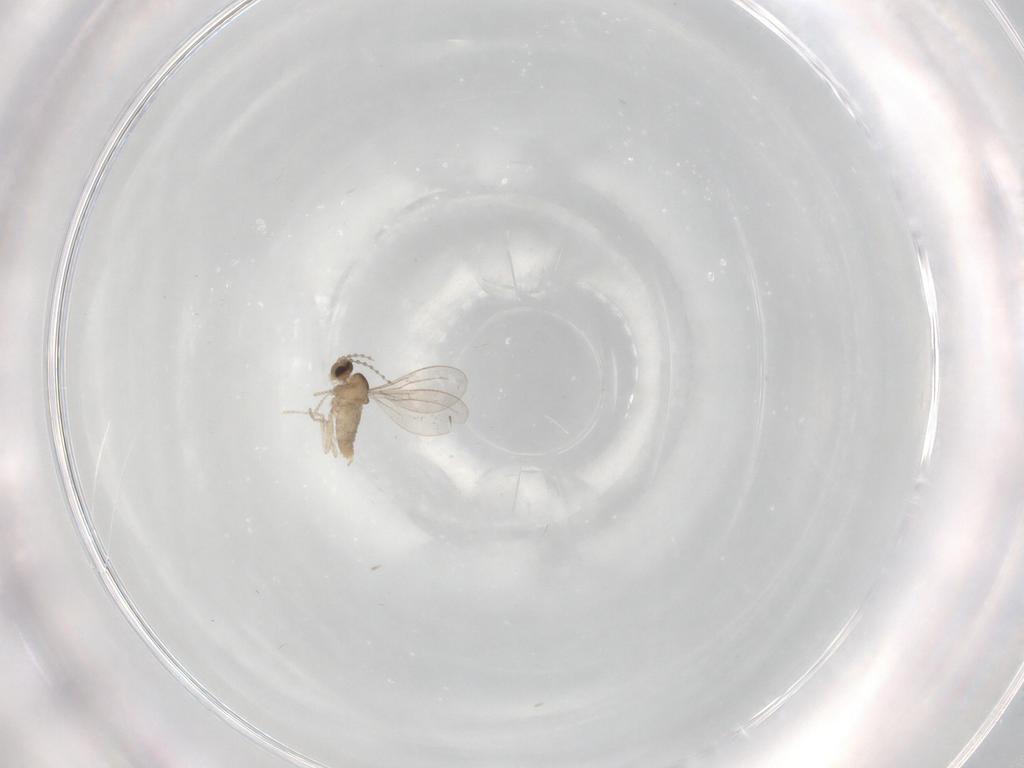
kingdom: Animalia
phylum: Arthropoda
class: Insecta
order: Diptera
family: Cecidomyiidae
